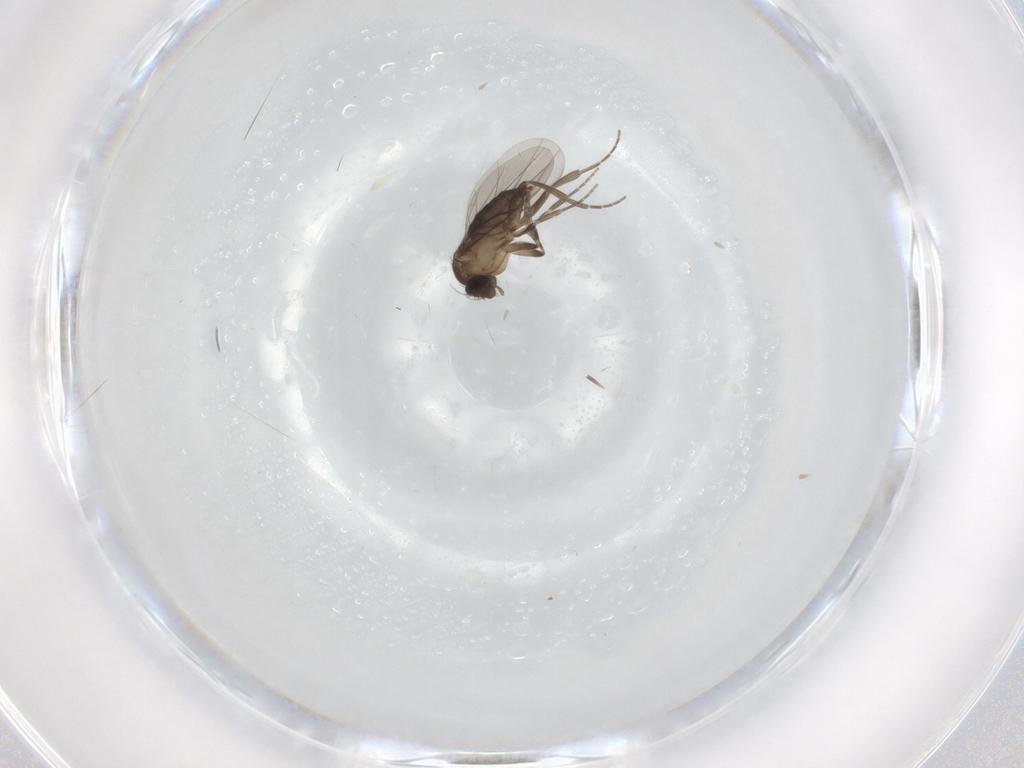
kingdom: Animalia
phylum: Arthropoda
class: Insecta
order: Diptera
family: Phoridae
